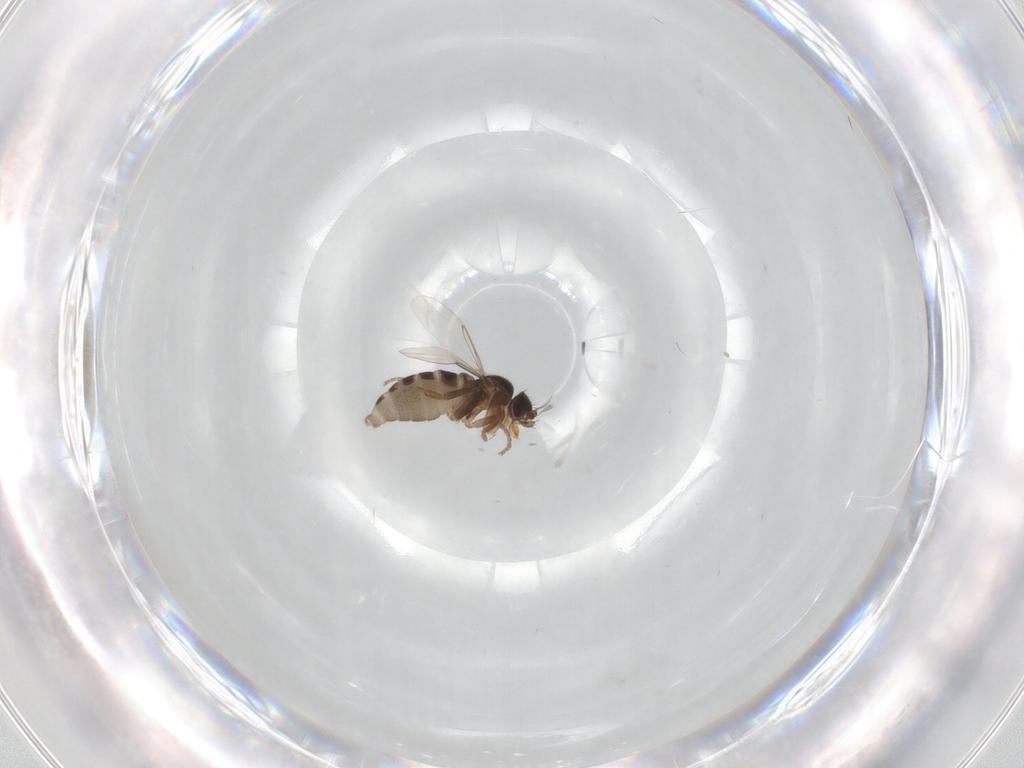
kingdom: Animalia
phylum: Arthropoda
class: Insecta
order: Diptera
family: Phoridae
